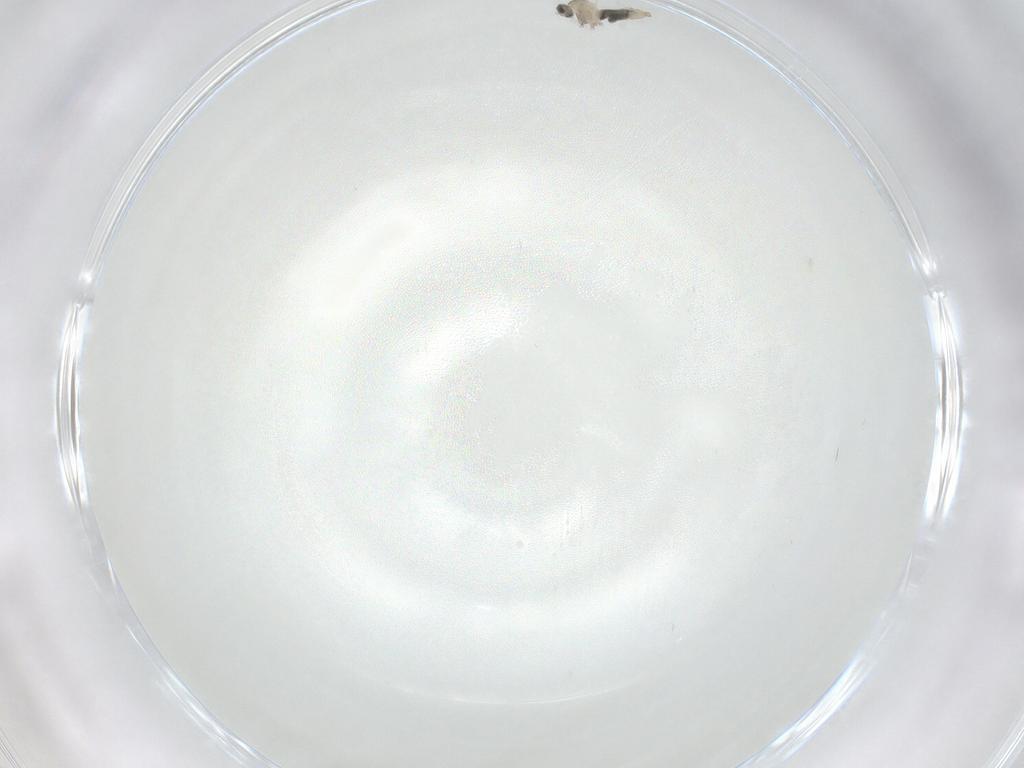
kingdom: Animalia
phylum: Arthropoda
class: Insecta
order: Diptera
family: Cecidomyiidae
